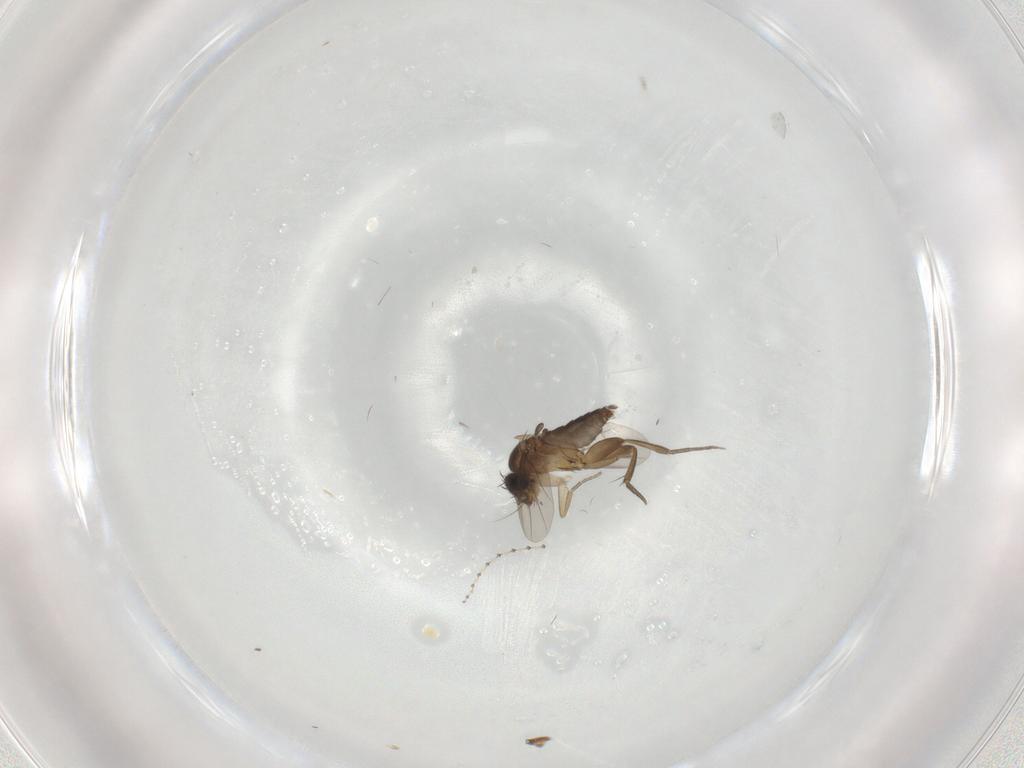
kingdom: Animalia
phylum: Arthropoda
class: Insecta
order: Diptera
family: Phoridae
